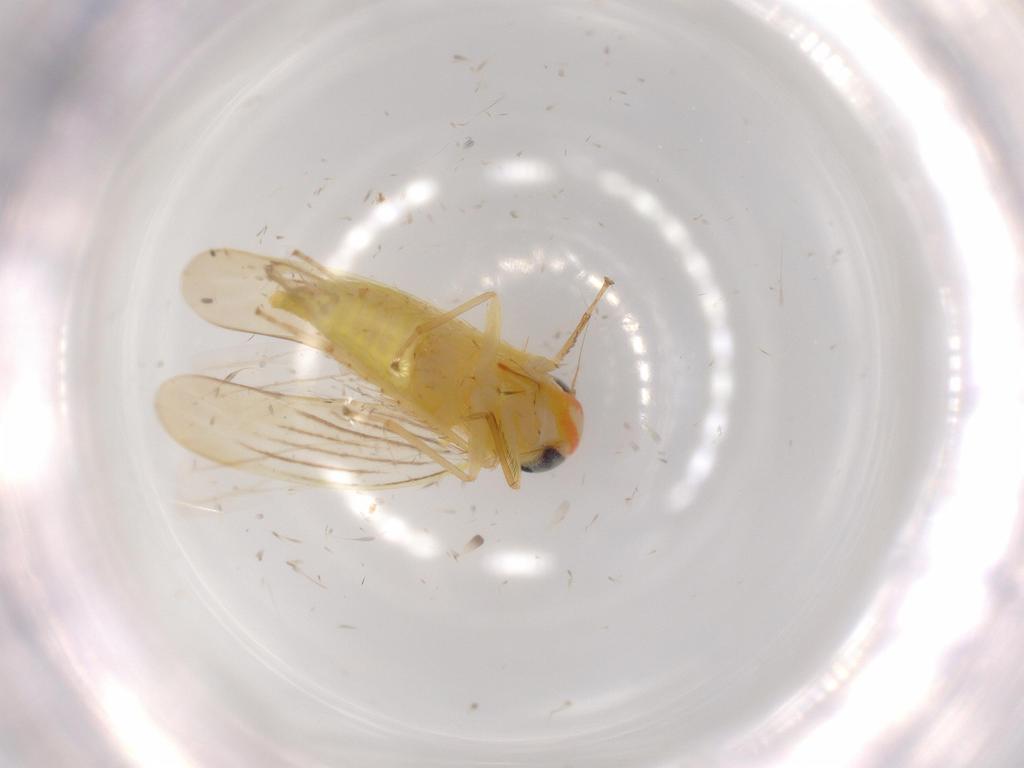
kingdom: Animalia
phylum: Arthropoda
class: Insecta
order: Hemiptera
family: Cicadellidae
